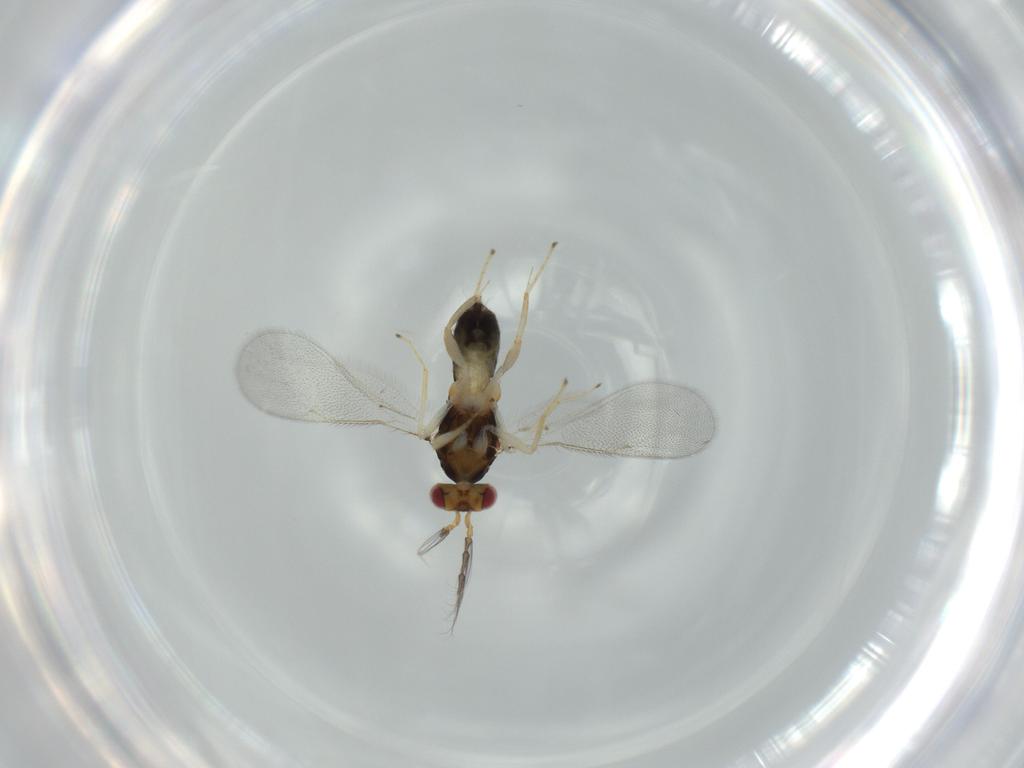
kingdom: Animalia
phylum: Arthropoda
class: Insecta
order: Hymenoptera
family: Eulophidae
